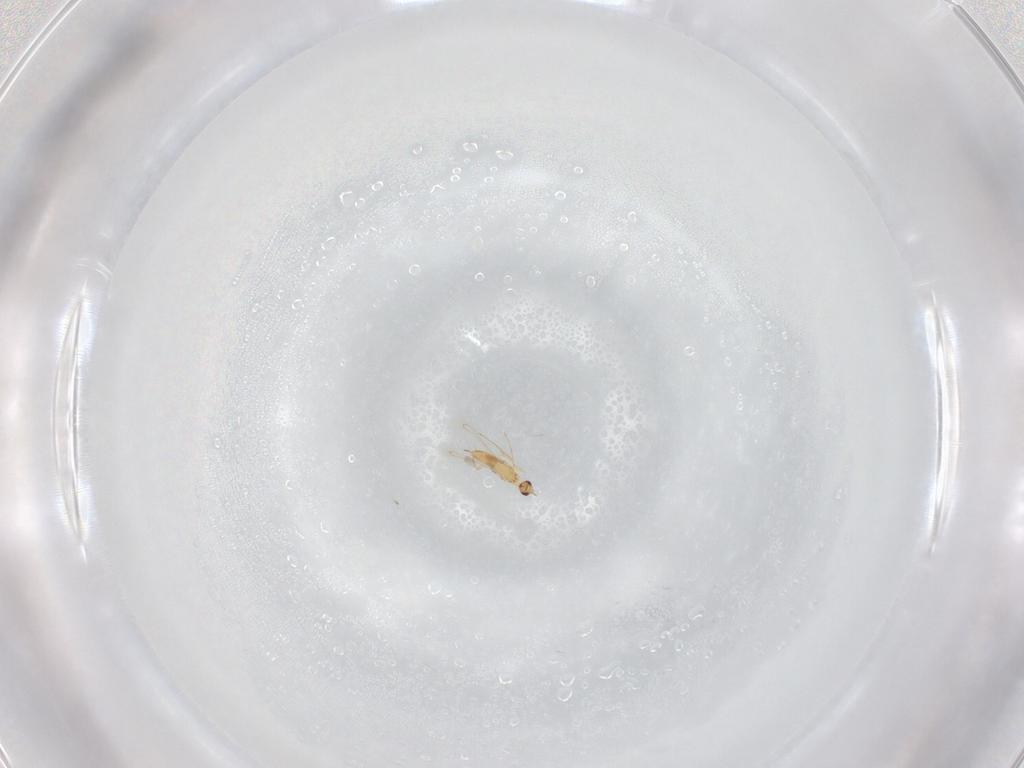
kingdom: Animalia
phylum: Arthropoda
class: Insecta
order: Hymenoptera
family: Mymaridae
